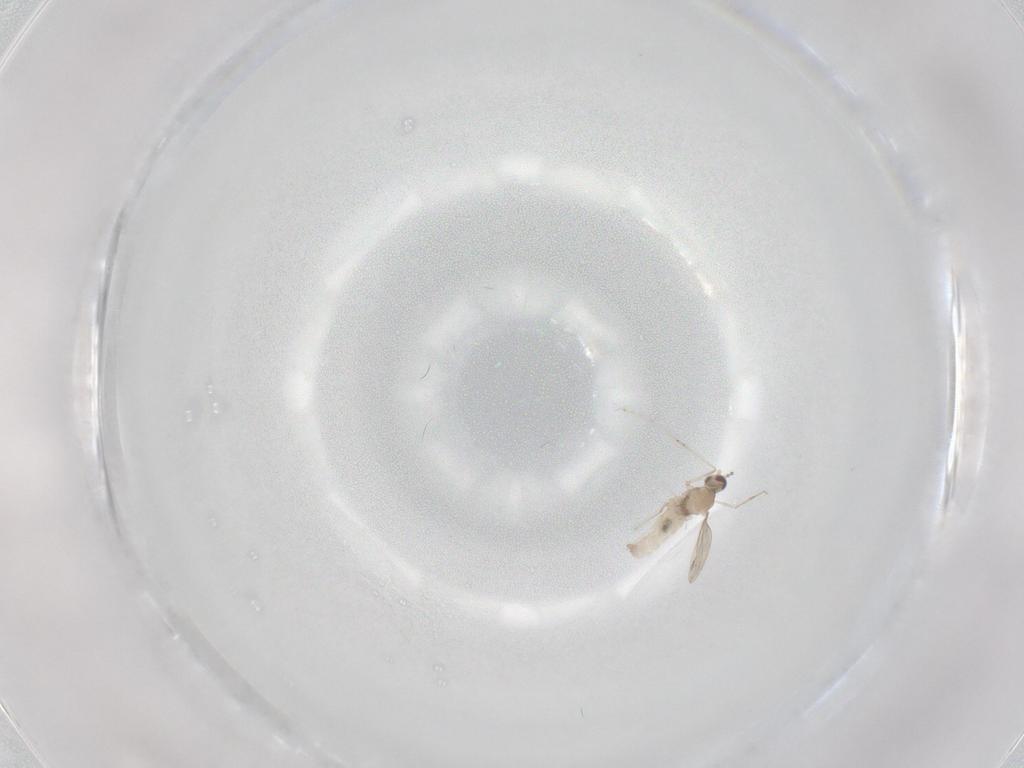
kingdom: Animalia
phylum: Arthropoda
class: Insecta
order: Diptera
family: Cecidomyiidae
